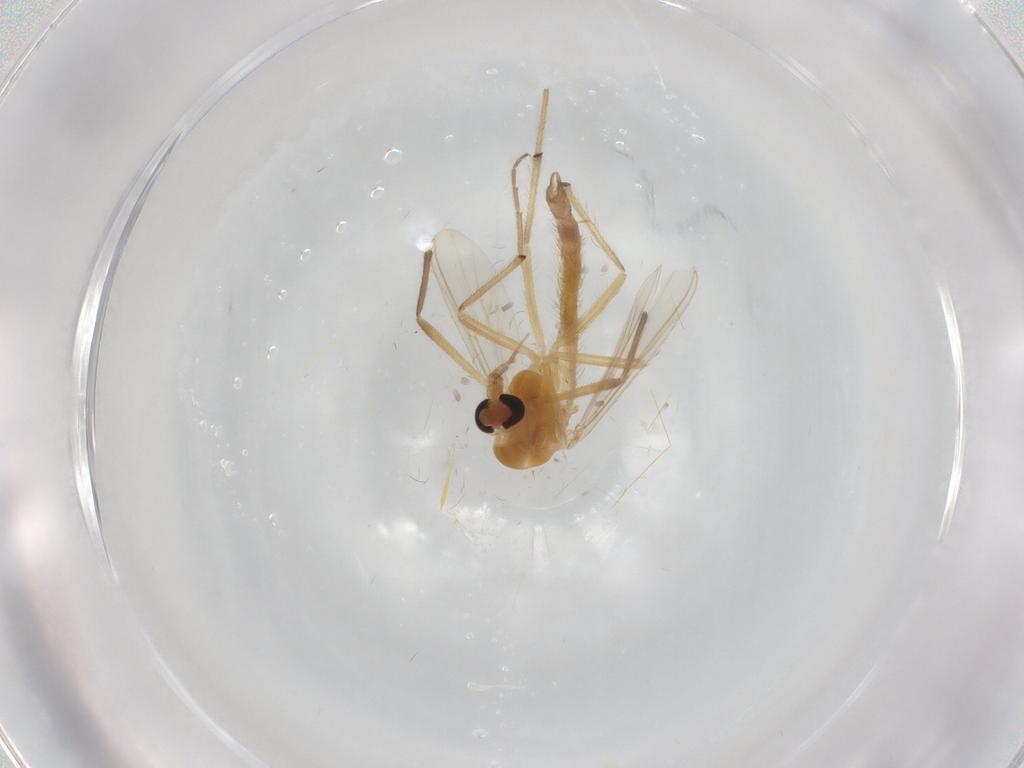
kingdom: Animalia
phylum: Arthropoda
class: Insecta
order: Diptera
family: Chironomidae
